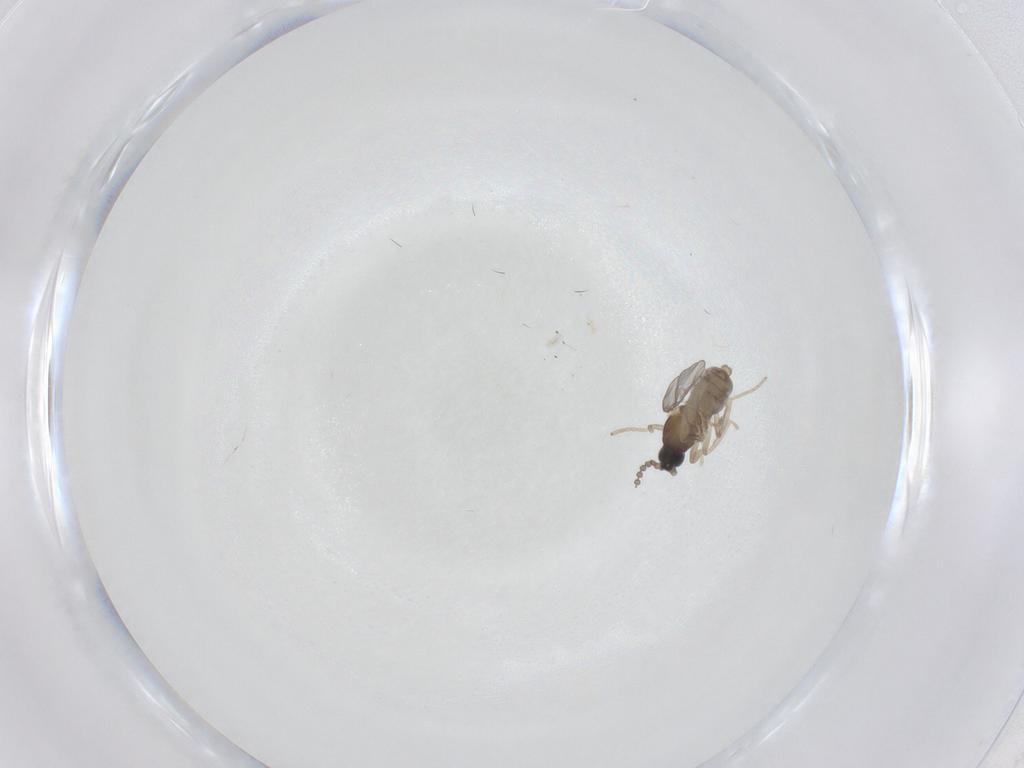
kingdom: Animalia
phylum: Arthropoda
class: Insecta
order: Diptera
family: Cecidomyiidae
